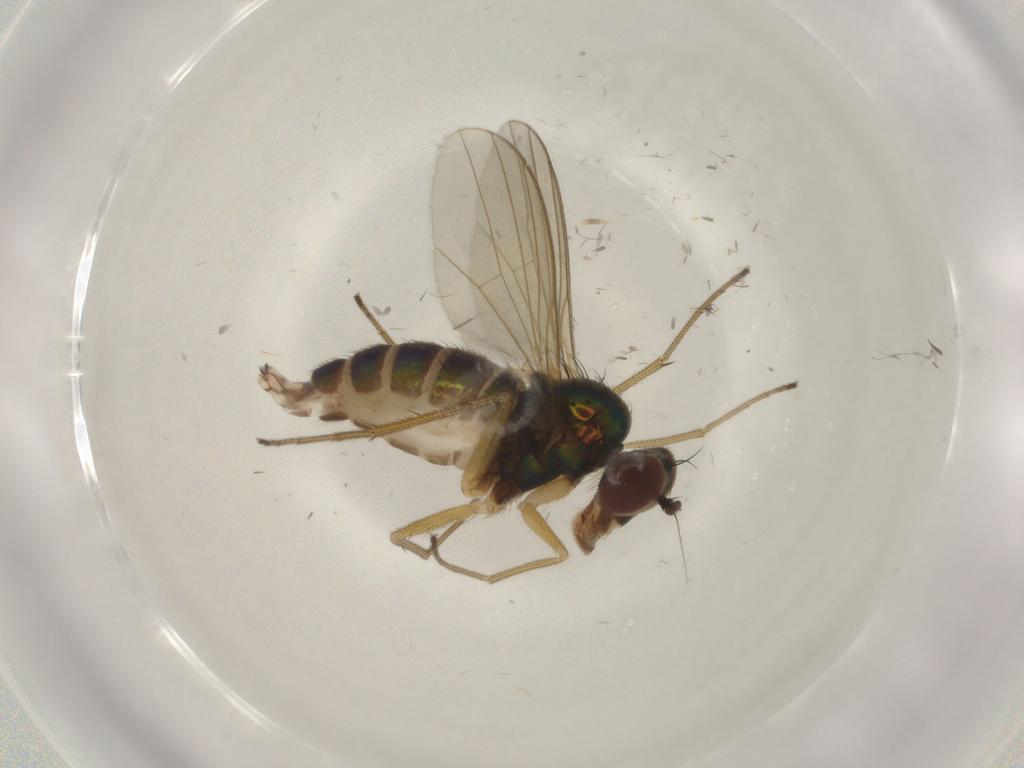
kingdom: Animalia
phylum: Arthropoda
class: Insecta
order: Diptera
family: Dolichopodidae
